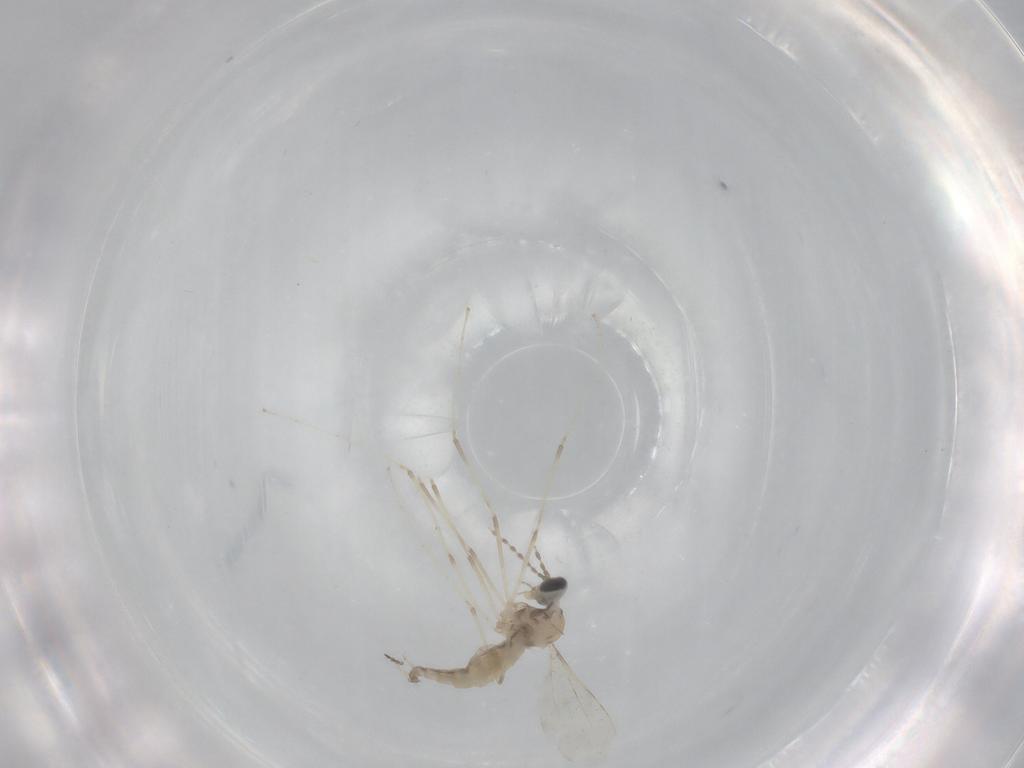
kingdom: Animalia
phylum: Arthropoda
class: Insecta
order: Diptera
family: Cecidomyiidae
